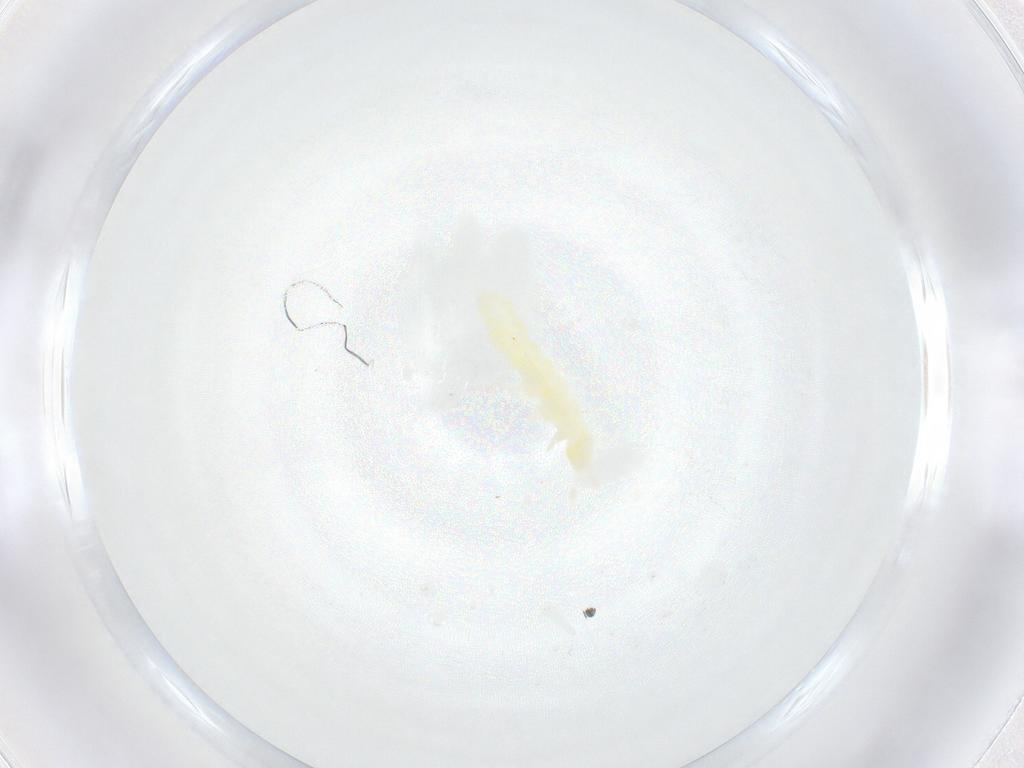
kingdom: Animalia
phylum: Arthropoda
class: Collembola
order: Poduromorpha
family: Onychiuridae
